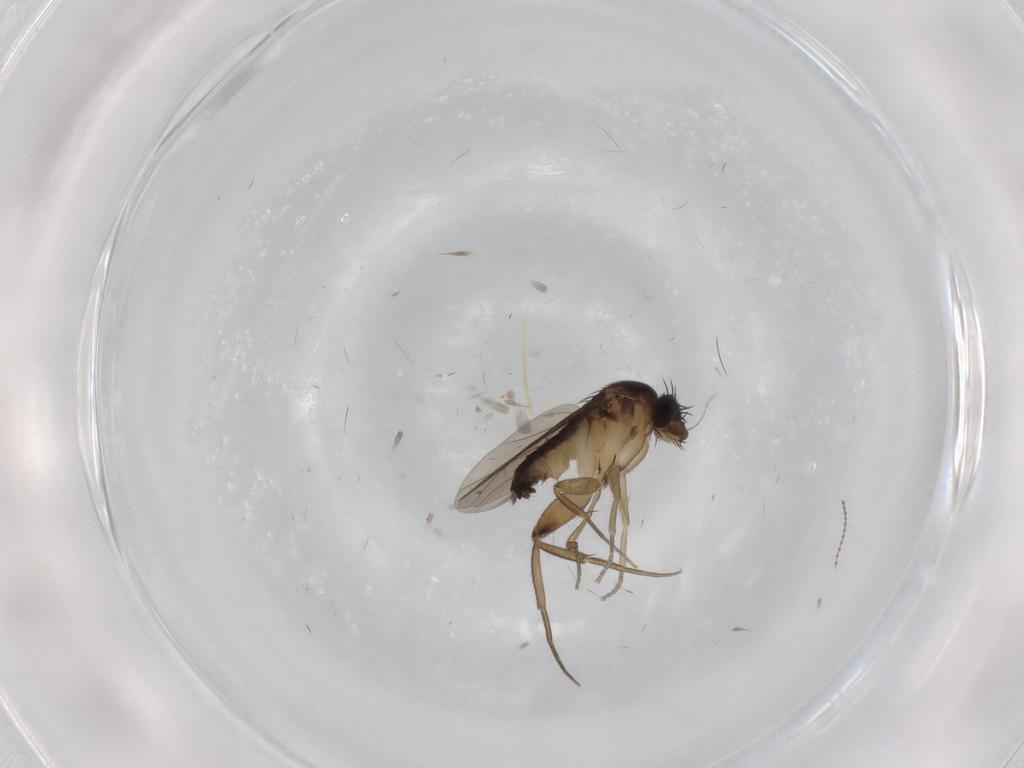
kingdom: Animalia
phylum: Arthropoda
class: Insecta
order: Diptera
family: Phoridae
